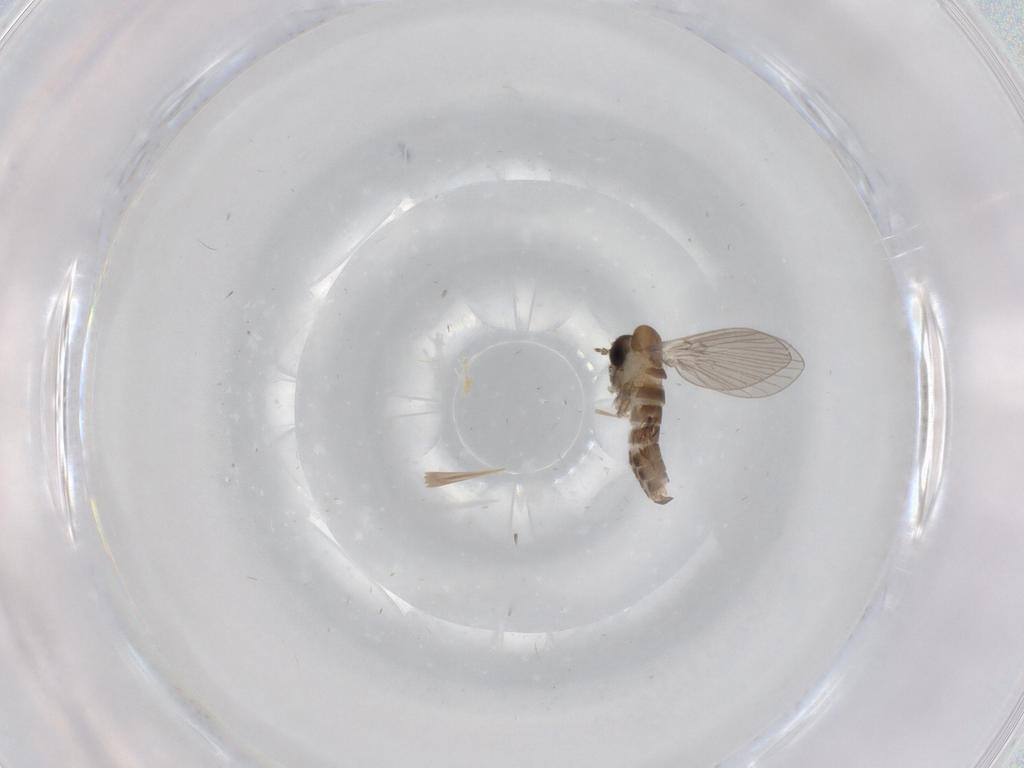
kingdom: Animalia
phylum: Arthropoda
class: Insecta
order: Diptera
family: Psychodidae
